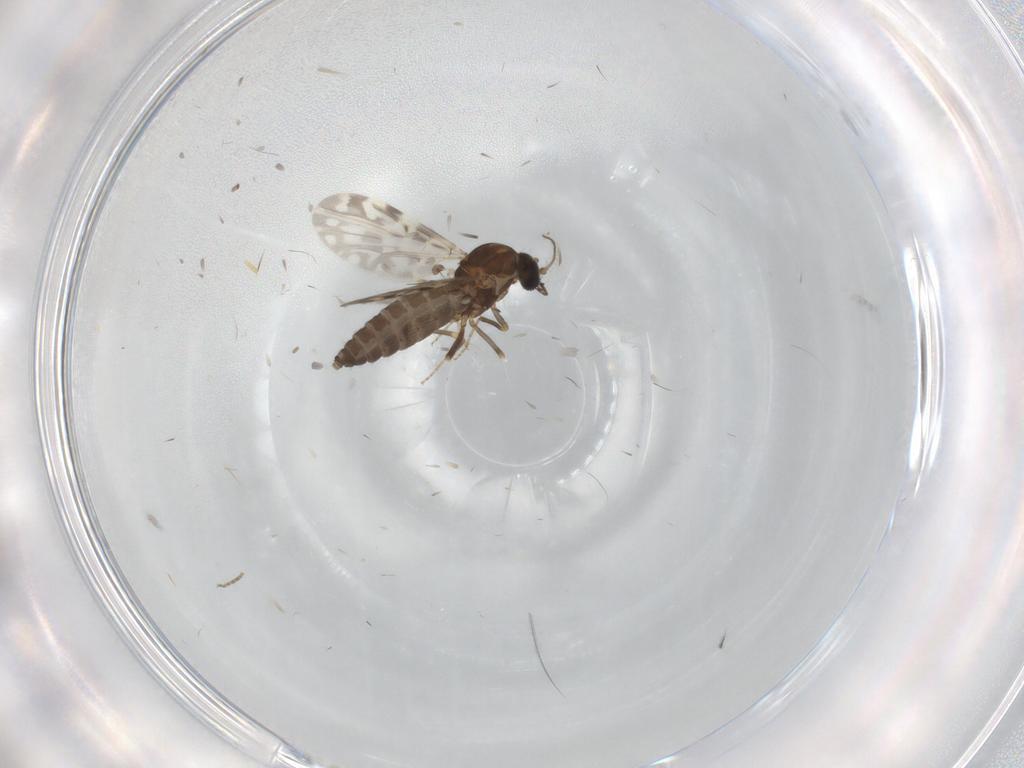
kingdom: Animalia
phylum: Arthropoda
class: Insecta
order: Diptera
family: Ceratopogonidae
